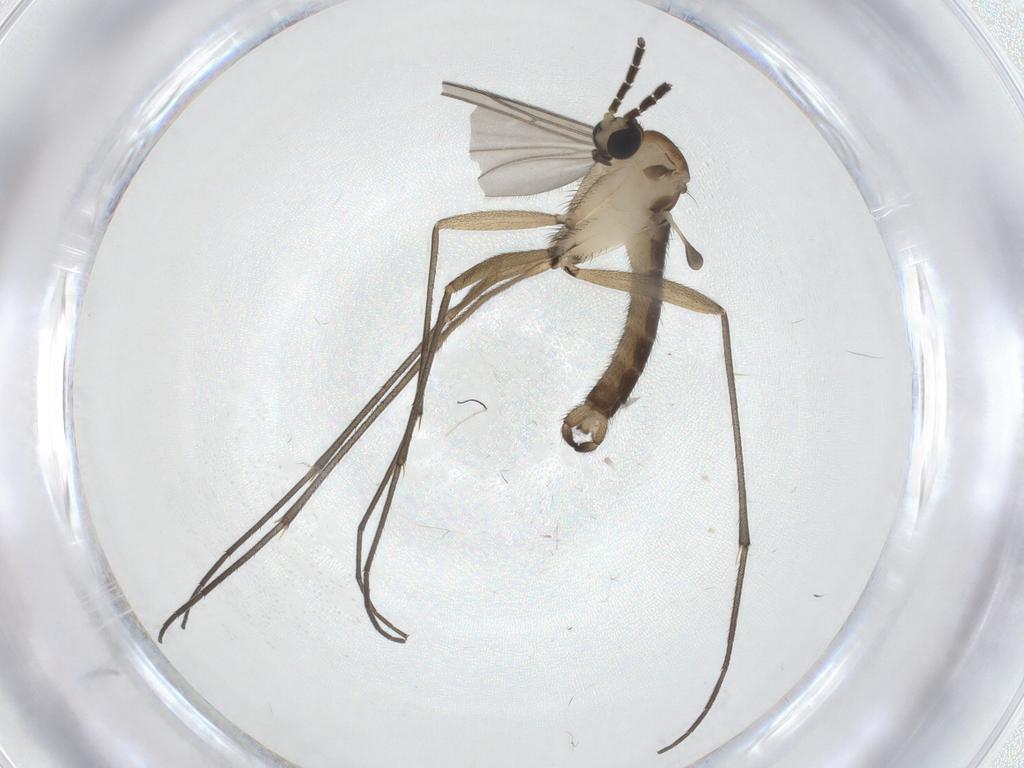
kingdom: Animalia
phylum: Arthropoda
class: Insecta
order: Diptera
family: Sciaridae
